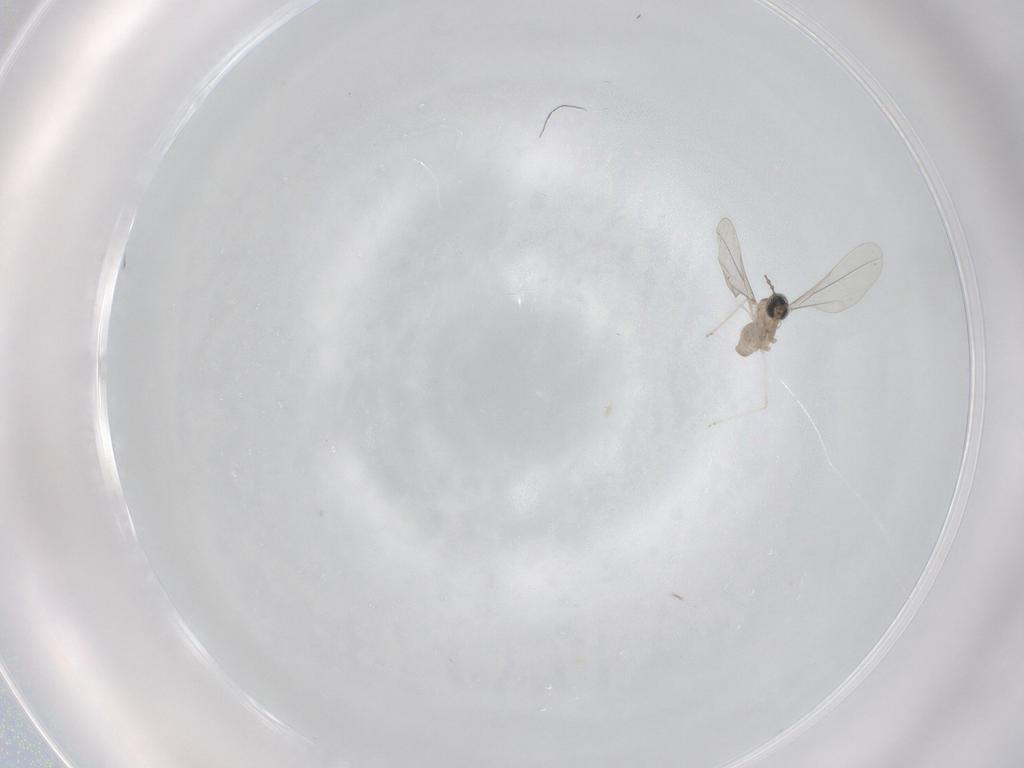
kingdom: Animalia
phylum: Arthropoda
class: Insecta
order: Diptera
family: Cecidomyiidae
